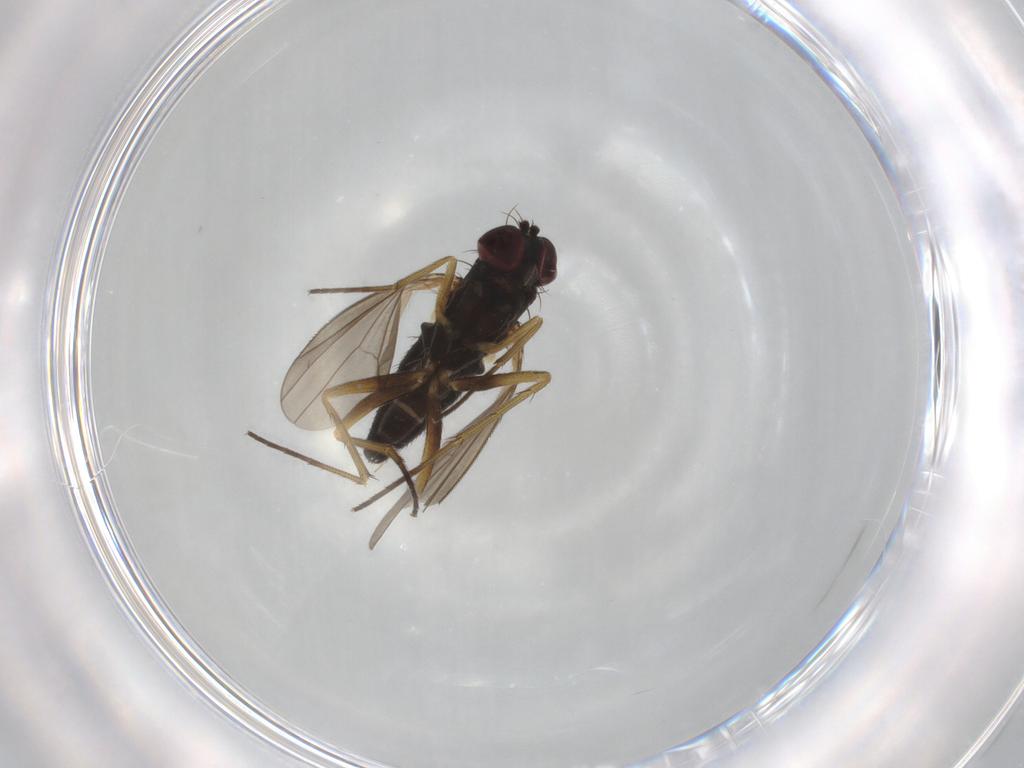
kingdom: Animalia
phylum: Arthropoda
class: Insecta
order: Diptera
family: Dolichopodidae
